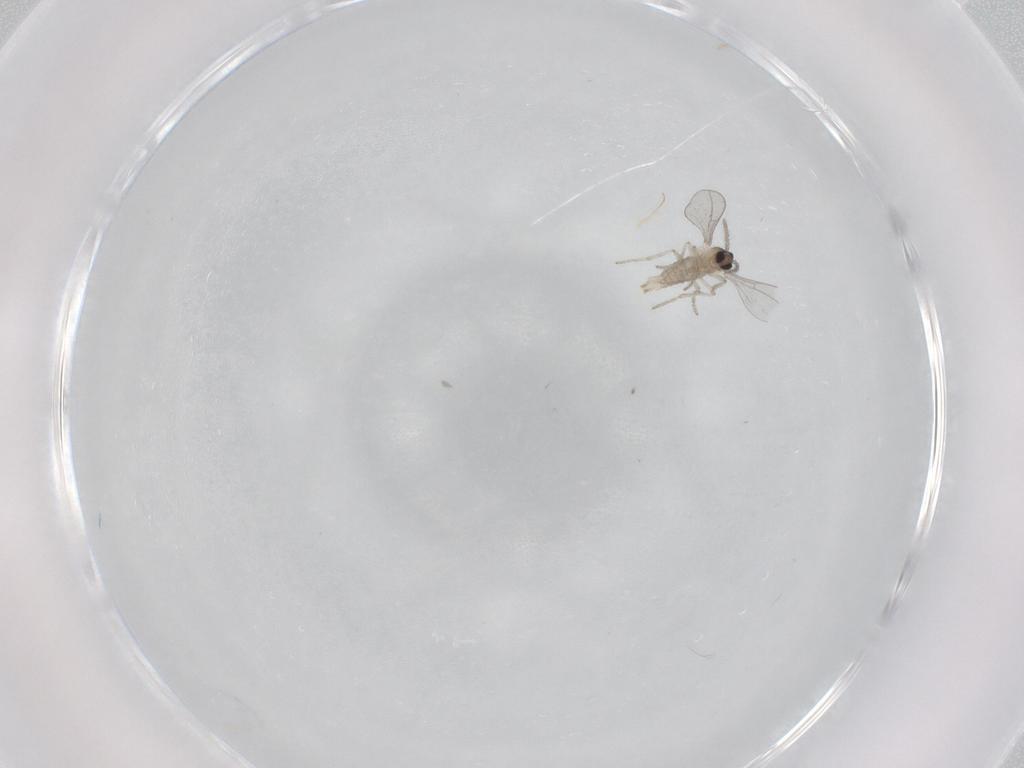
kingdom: Animalia
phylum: Arthropoda
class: Insecta
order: Diptera
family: Cecidomyiidae
